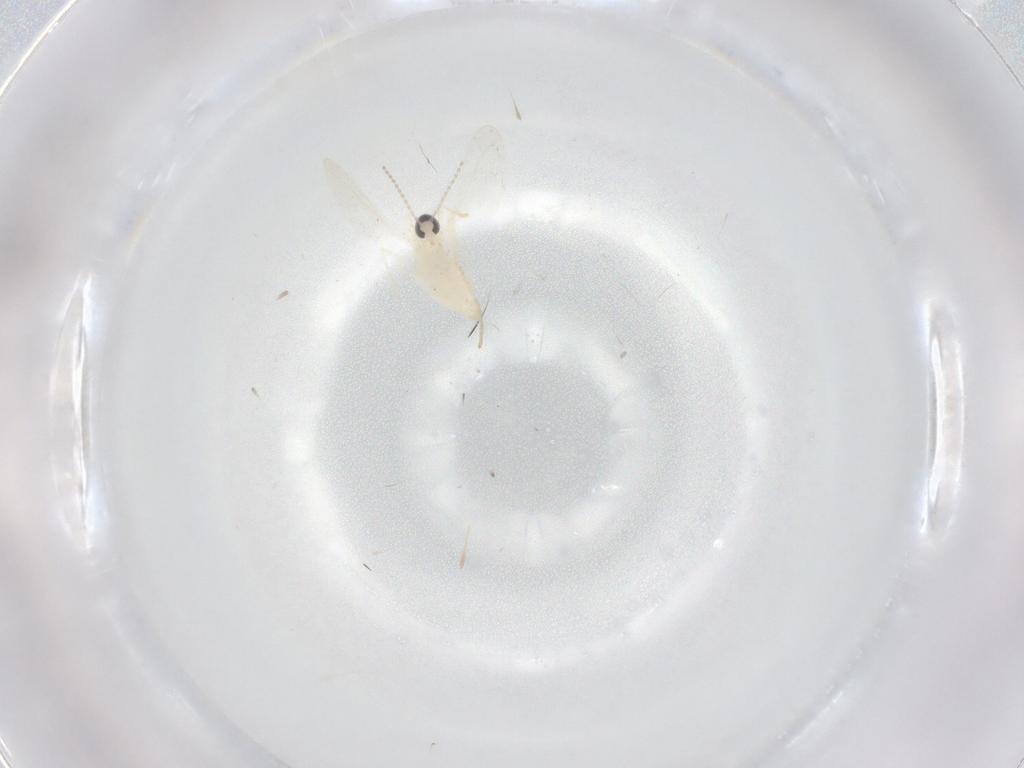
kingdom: Animalia
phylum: Arthropoda
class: Insecta
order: Diptera
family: Cecidomyiidae
